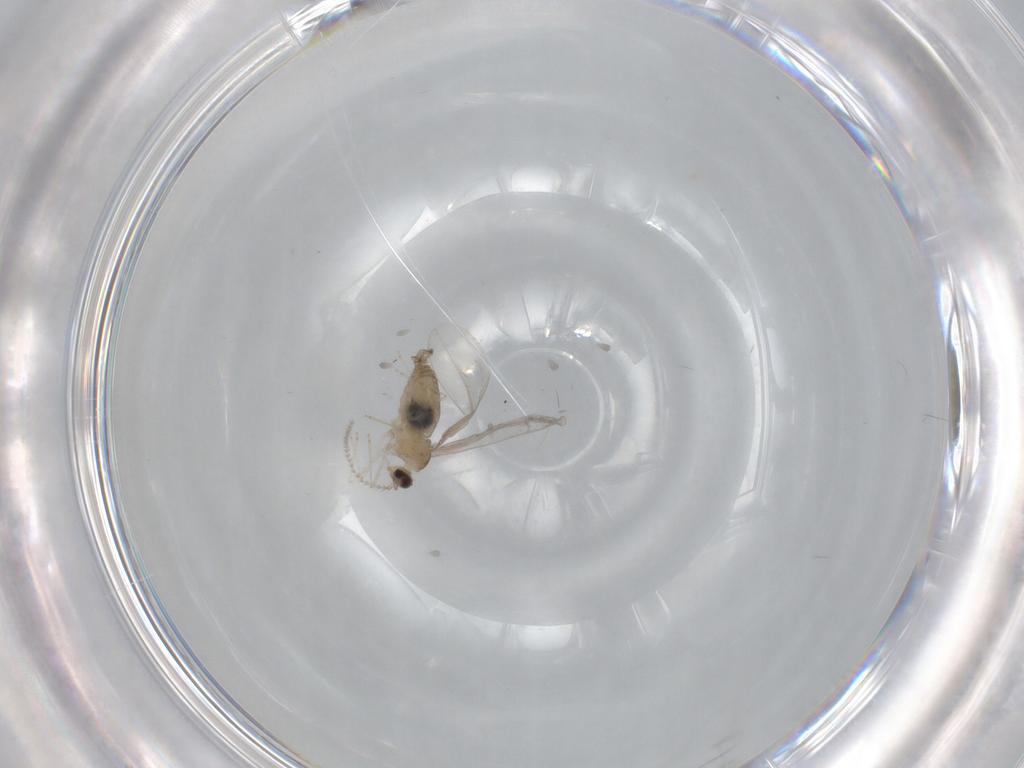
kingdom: Animalia
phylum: Arthropoda
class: Insecta
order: Diptera
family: Cecidomyiidae
